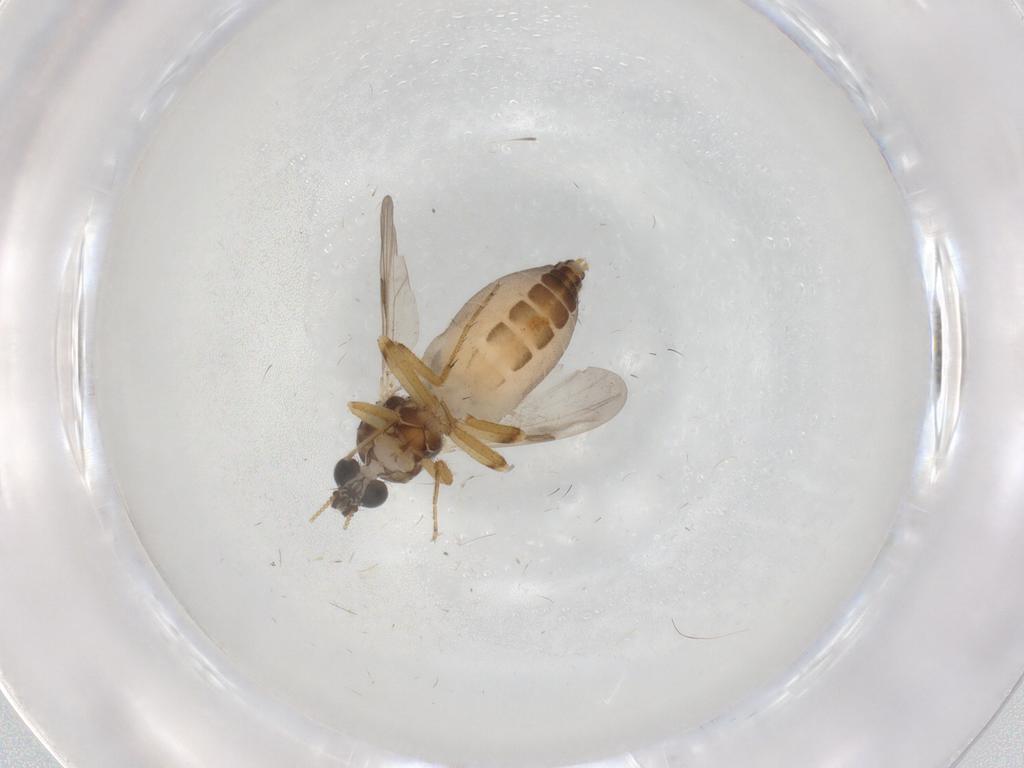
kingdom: Animalia
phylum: Arthropoda
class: Insecta
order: Diptera
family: Ceratopogonidae
